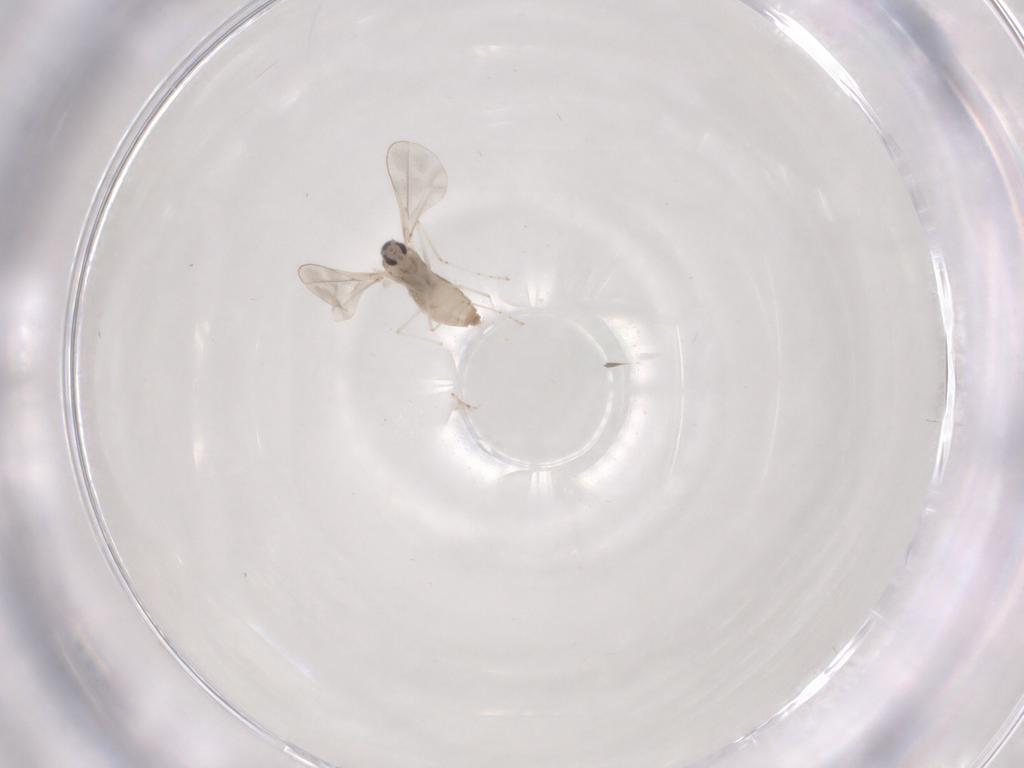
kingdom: Animalia
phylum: Arthropoda
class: Insecta
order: Diptera
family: Cecidomyiidae
